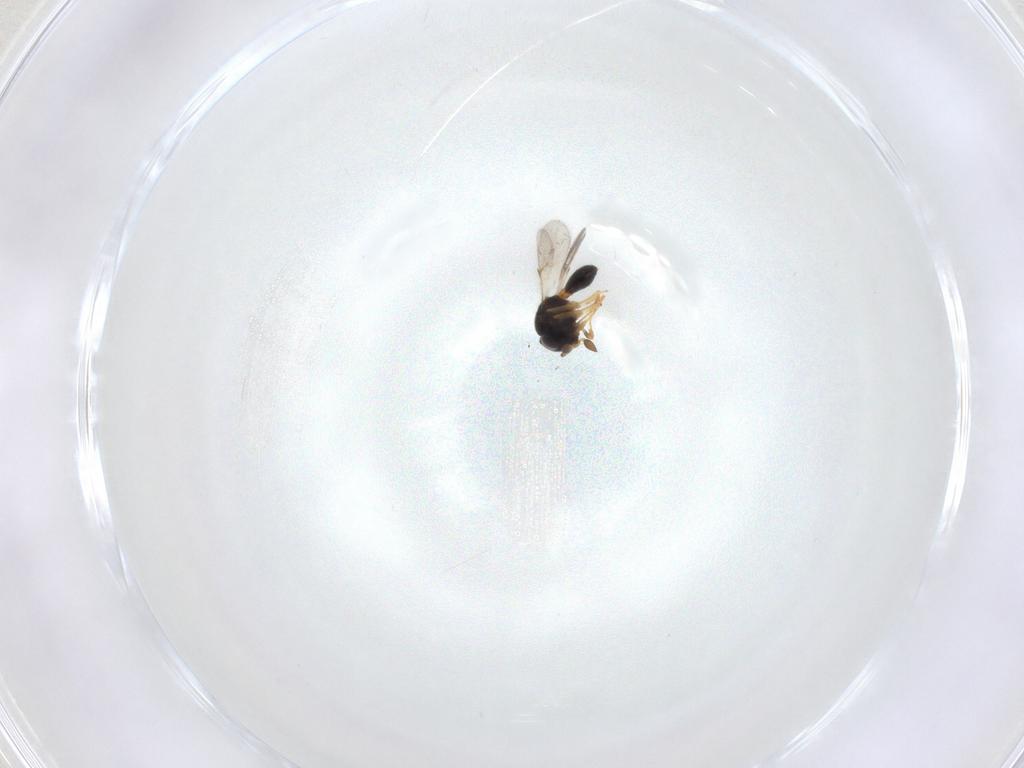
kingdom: Animalia
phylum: Arthropoda
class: Insecta
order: Hymenoptera
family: Scelionidae
